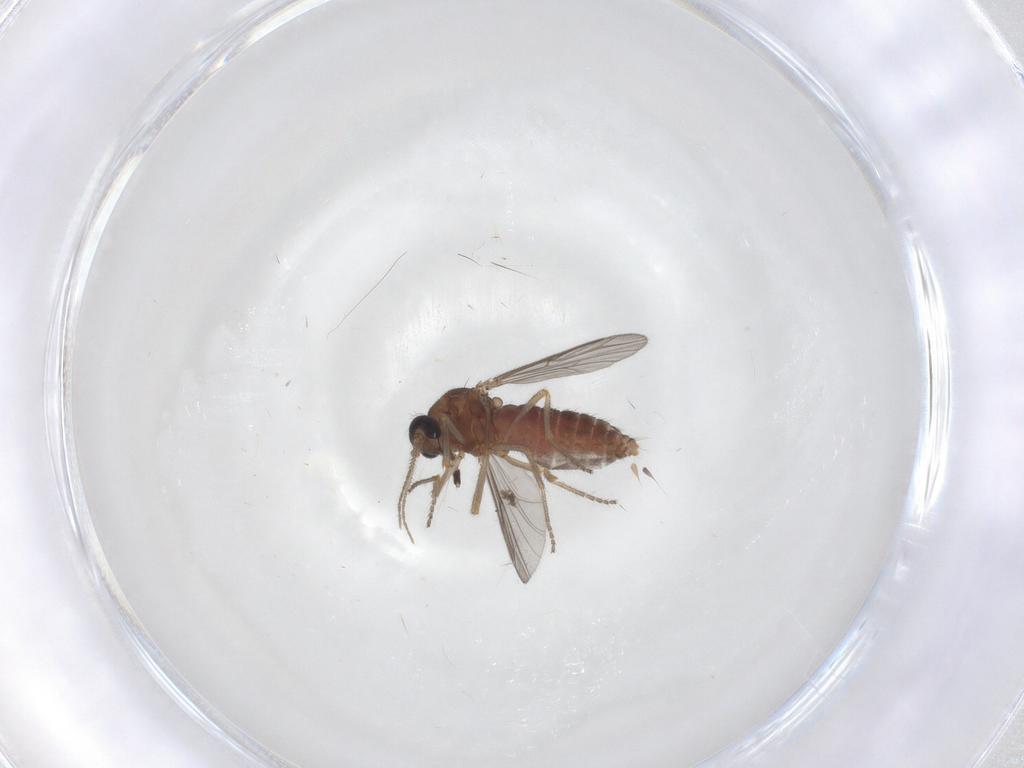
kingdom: Animalia
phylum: Arthropoda
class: Insecta
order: Diptera
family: Ceratopogonidae
